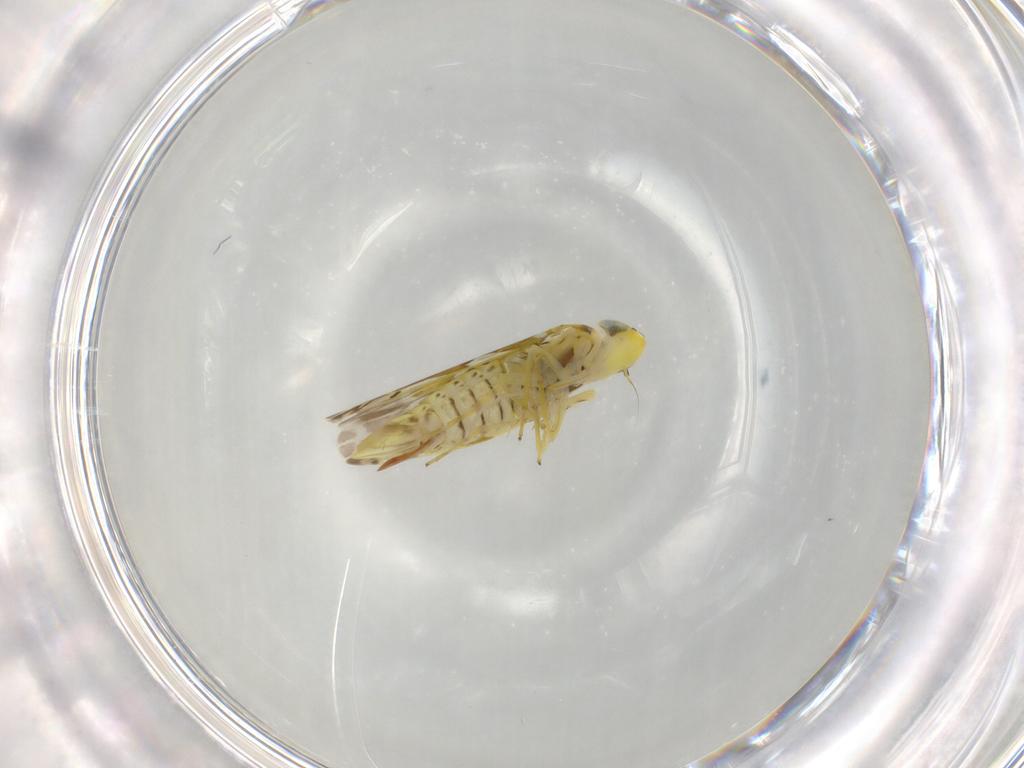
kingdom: Animalia
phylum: Arthropoda
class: Insecta
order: Hemiptera
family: Cicadellidae
